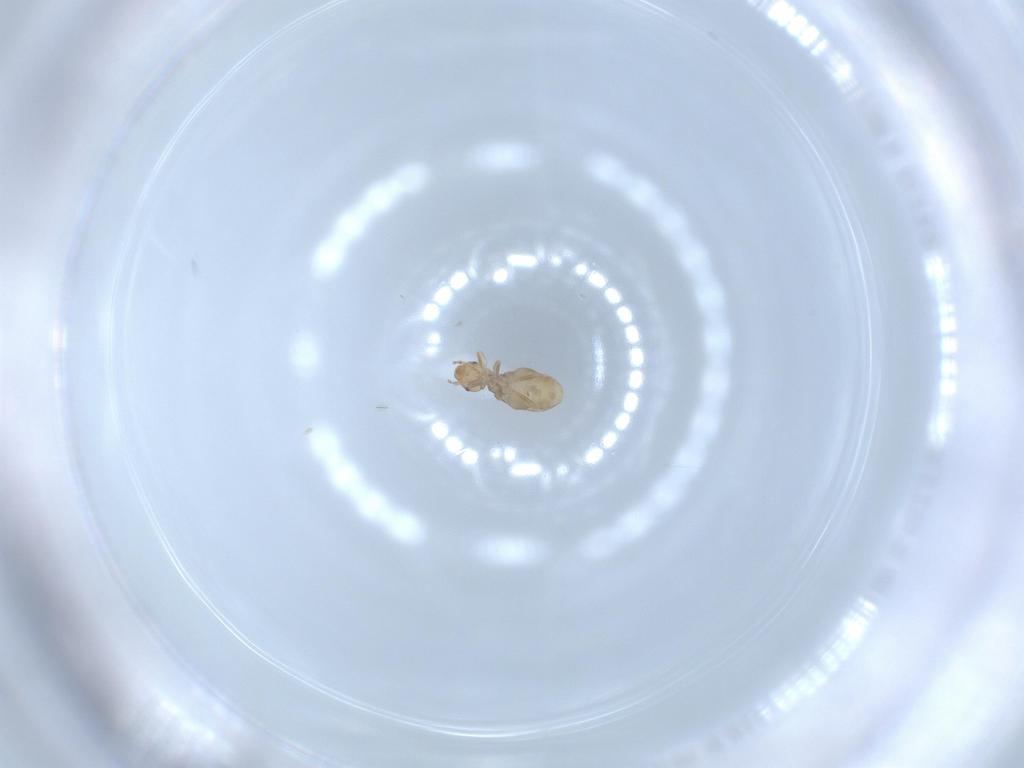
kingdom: Animalia
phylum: Arthropoda
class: Insecta
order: Psocodea
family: Liposcelididae
